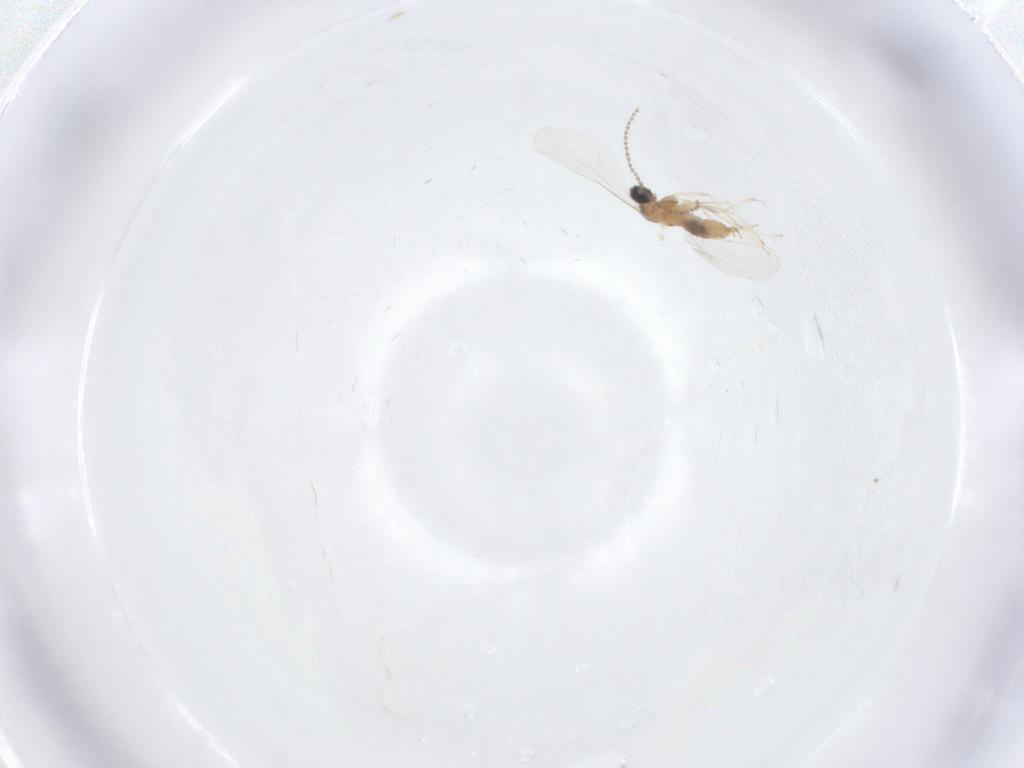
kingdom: Animalia
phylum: Arthropoda
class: Insecta
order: Diptera
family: Cecidomyiidae
